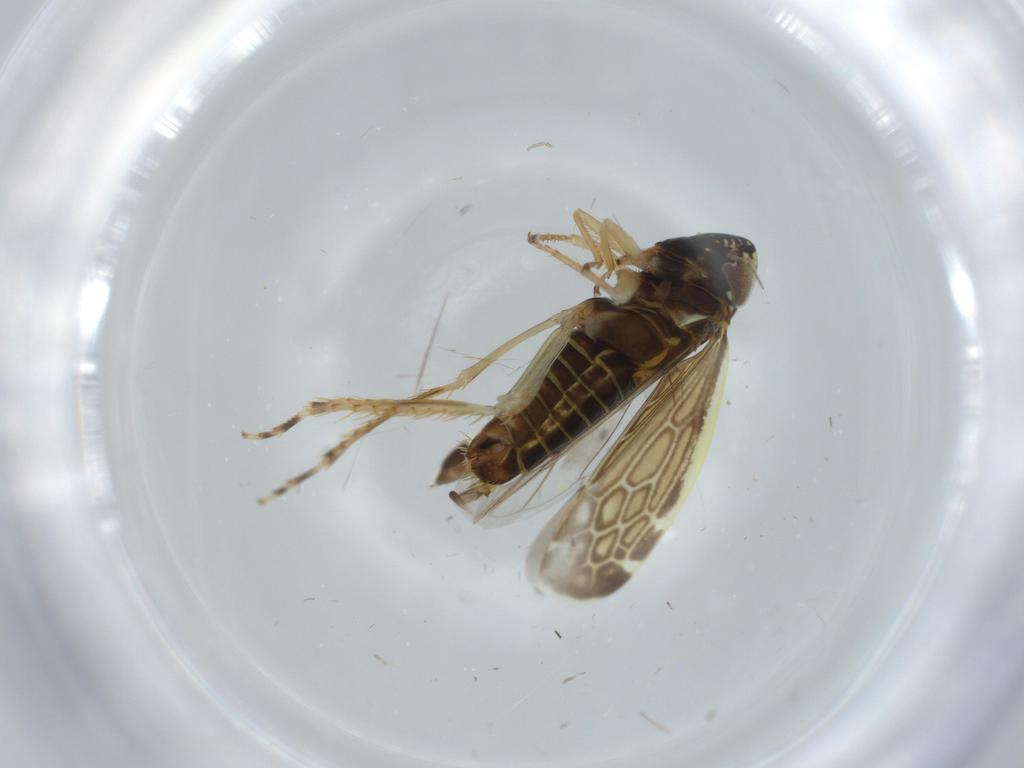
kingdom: Animalia
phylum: Arthropoda
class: Insecta
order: Hemiptera
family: Cicadellidae
